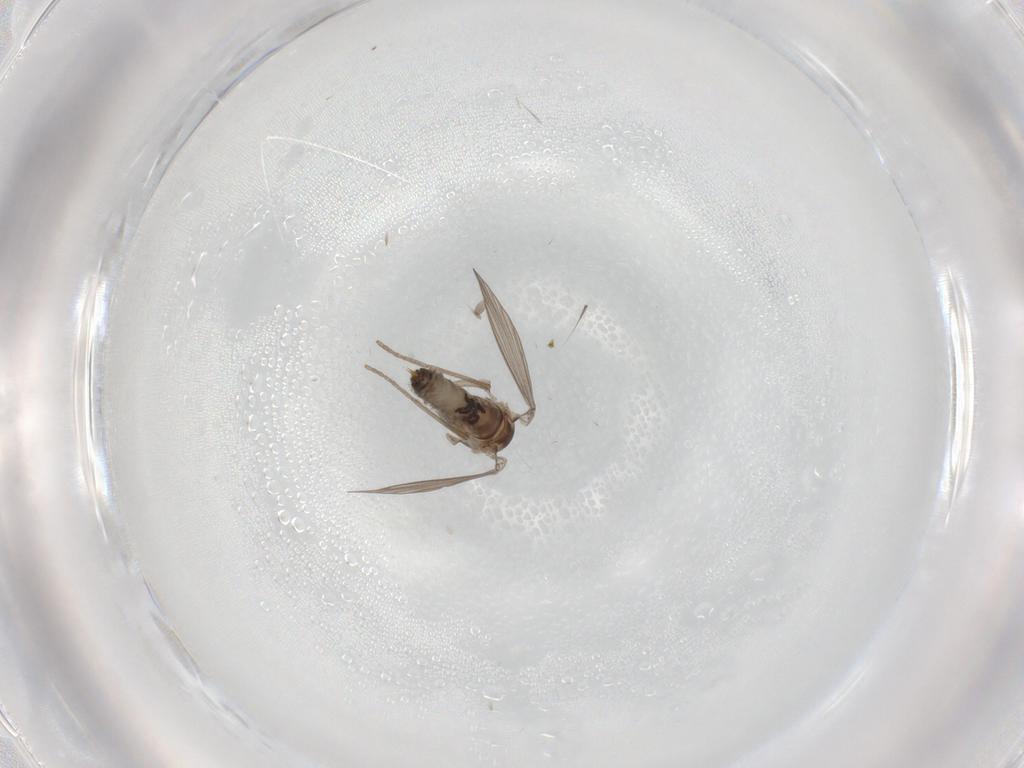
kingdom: Animalia
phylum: Arthropoda
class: Insecta
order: Diptera
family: Psychodidae
